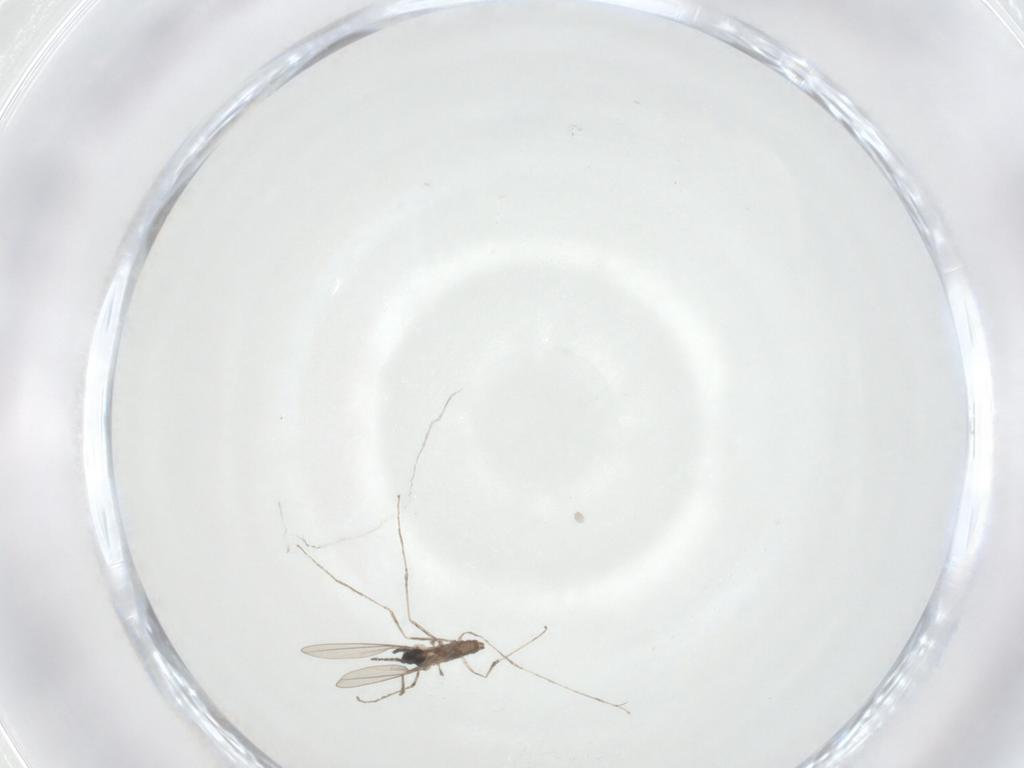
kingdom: Animalia
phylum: Arthropoda
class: Insecta
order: Diptera
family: Cecidomyiidae
